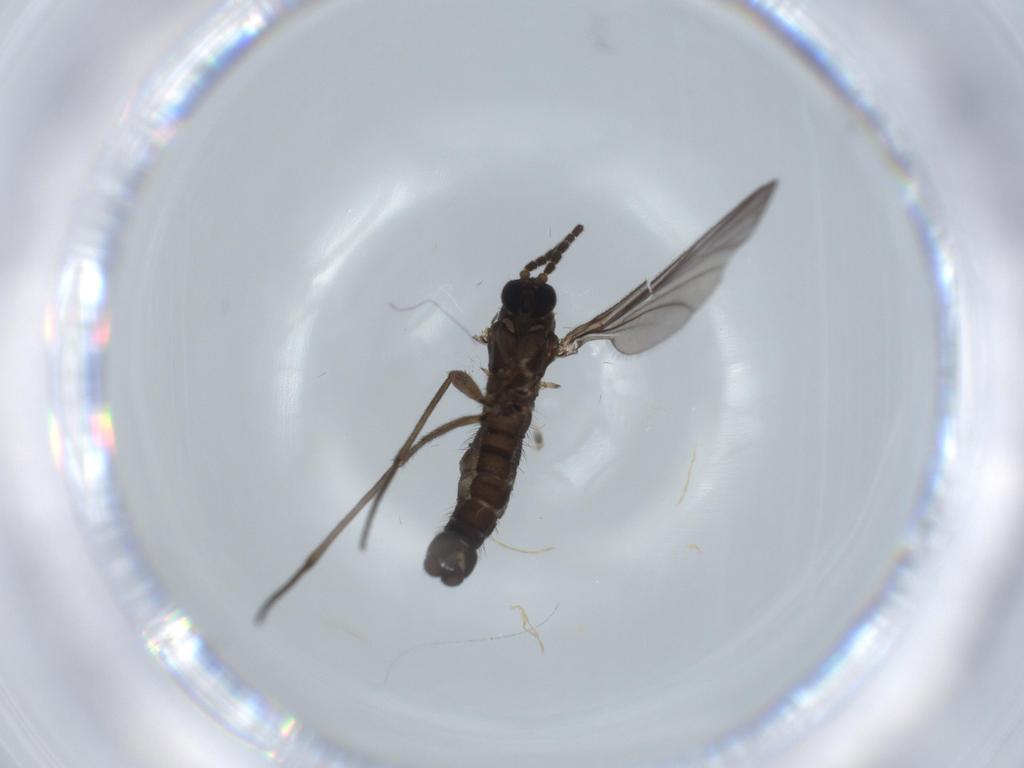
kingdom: Animalia
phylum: Arthropoda
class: Insecta
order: Diptera
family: Sciaridae
